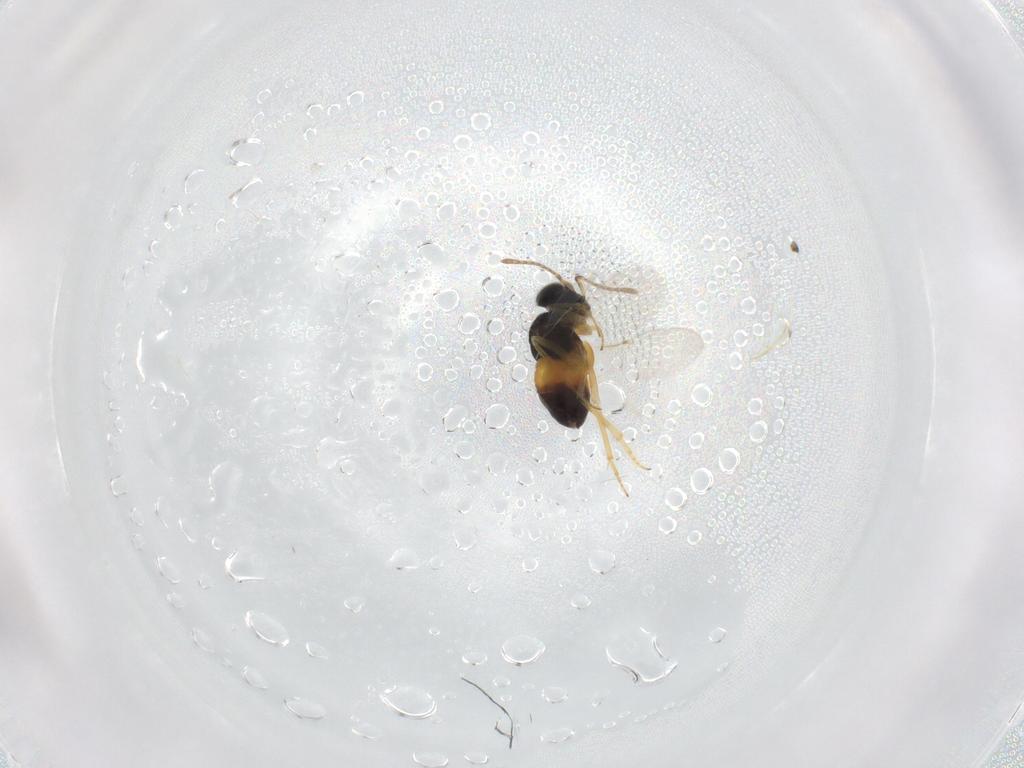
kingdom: Animalia
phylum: Arthropoda
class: Insecta
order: Hymenoptera
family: Encyrtidae
